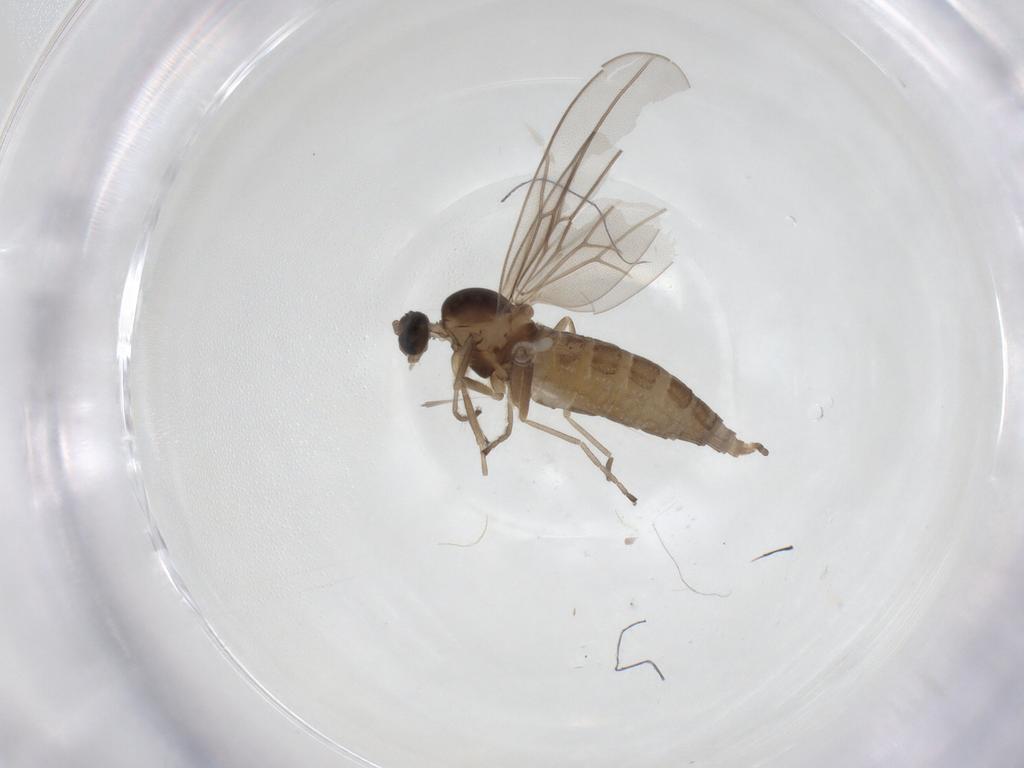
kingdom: Animalia
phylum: Arthropoda
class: Insecta
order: Diptera
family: Cecidomyiidae
